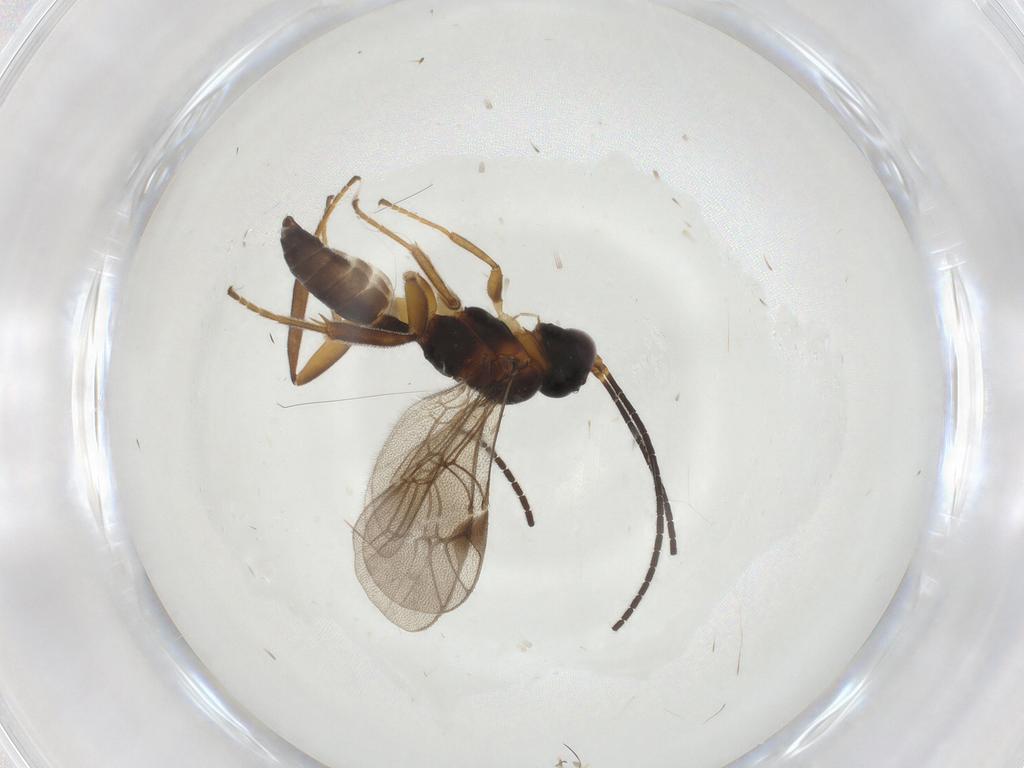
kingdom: Animalia
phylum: Arthropoda
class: Insecta
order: Hymenoptera
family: Ichneumonidae
